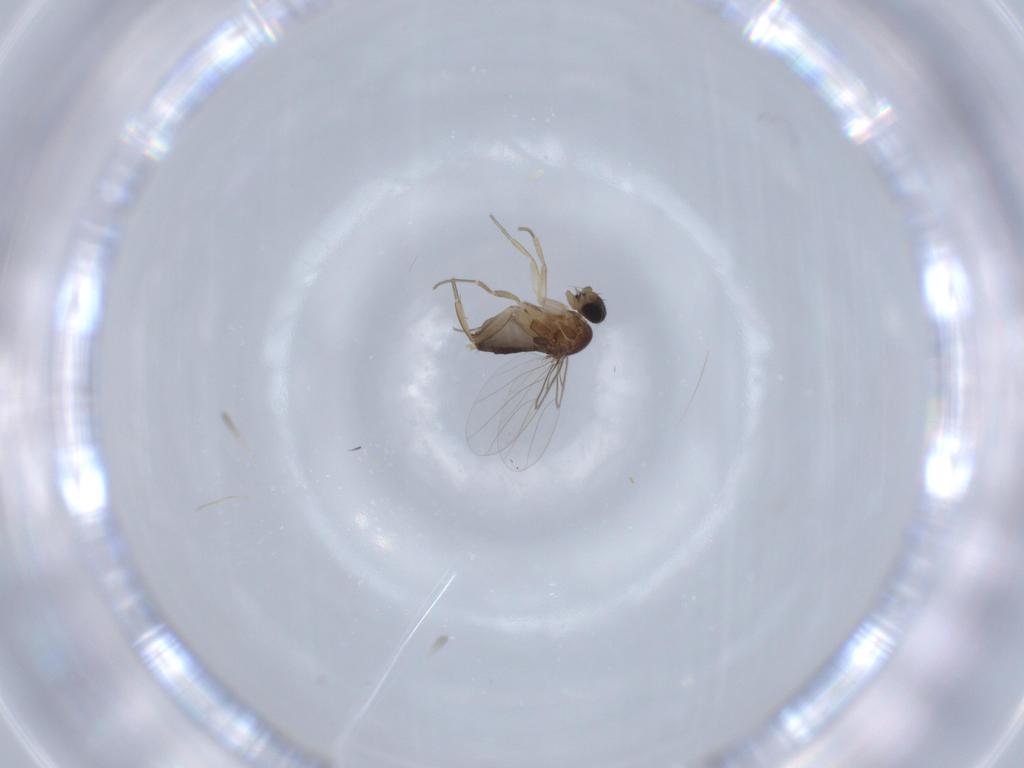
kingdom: Animalia
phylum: Arthropoda
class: Insecta
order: Diptera
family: Phoridae
